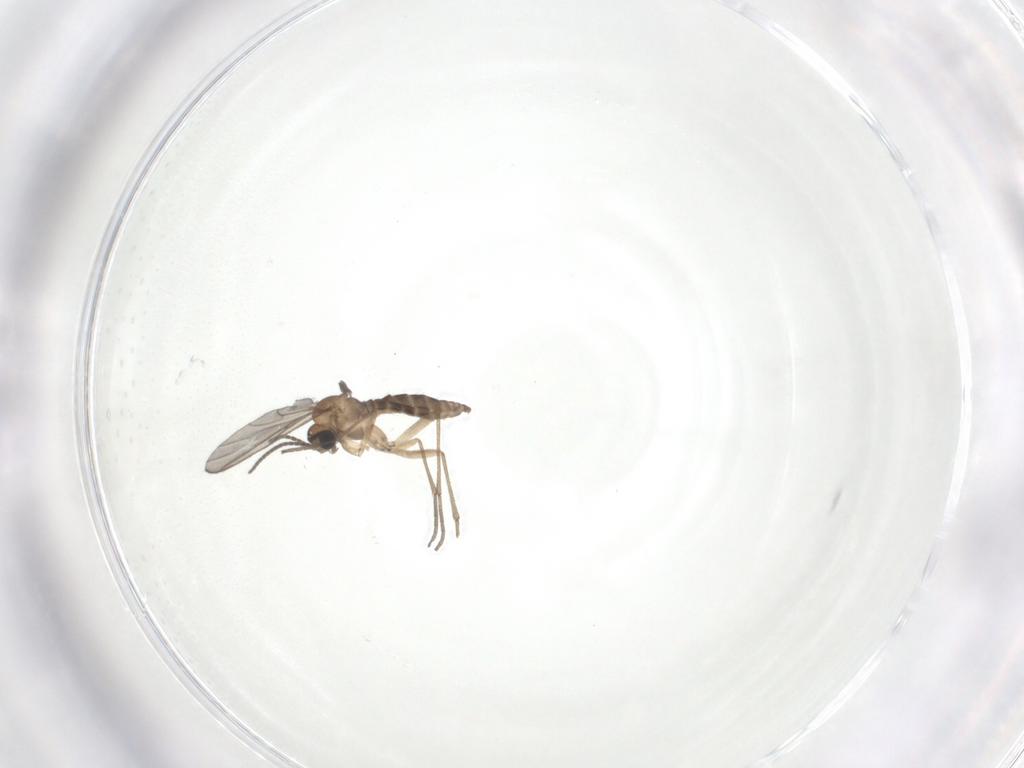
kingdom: Animalia
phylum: Arthropoda
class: Insecta
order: Diptera
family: Sciaridae
